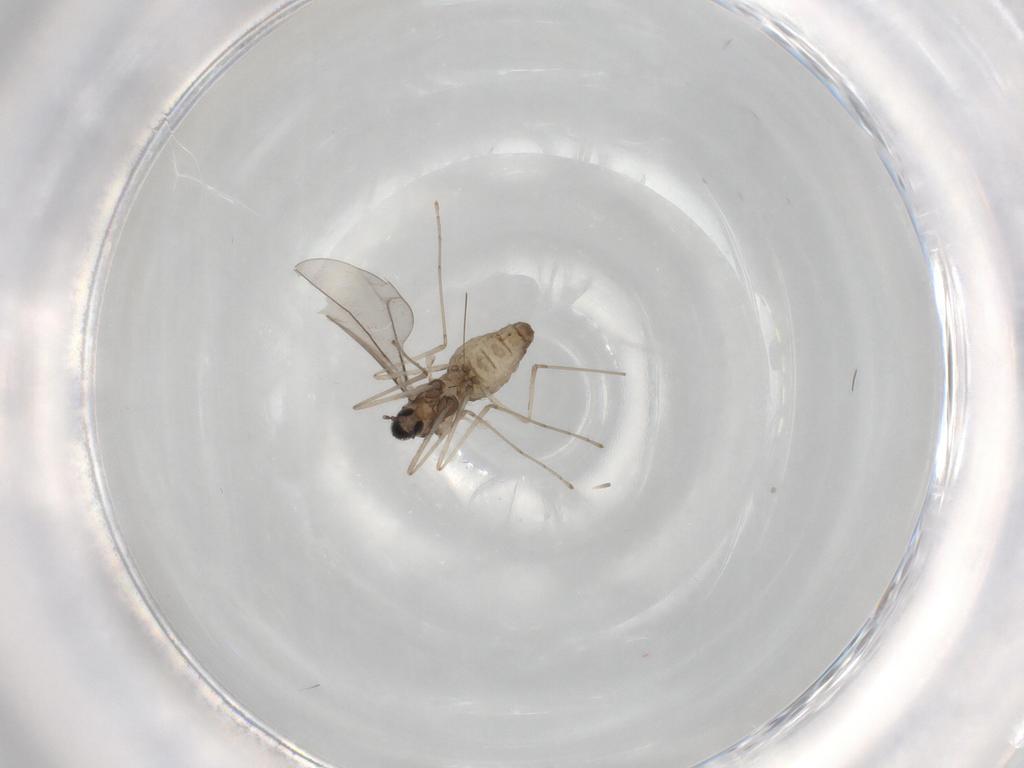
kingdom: Animalia
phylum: Arthropoda
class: Insecta
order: Diptera
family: Cecidomyiidae
